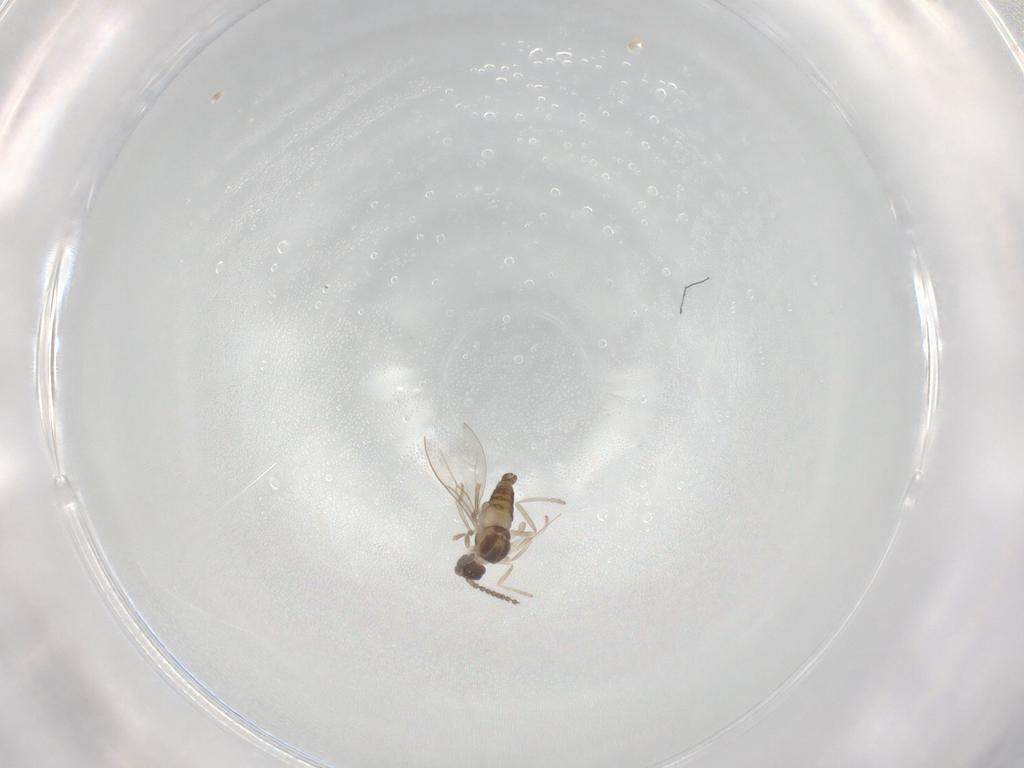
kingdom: Animalia
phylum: Arthropoda
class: Insecta
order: Diptera
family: Cecidomyiidae
